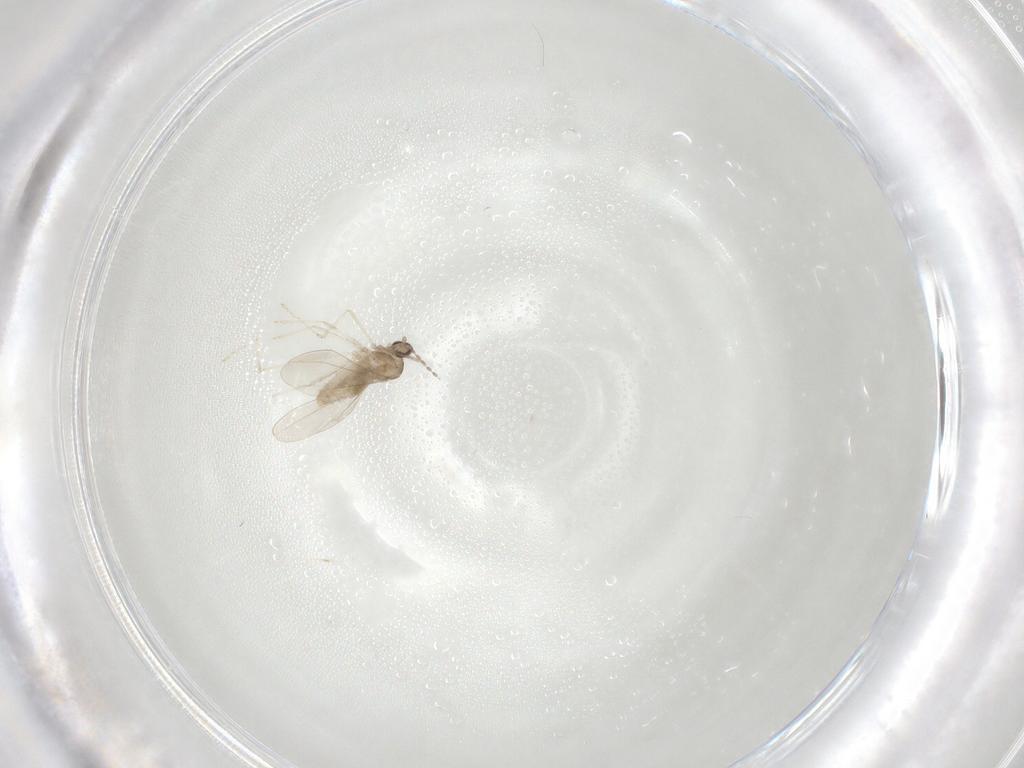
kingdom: Animalia
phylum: Arthropoda
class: Insecta
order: Diptera
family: Cecidomyiidae
